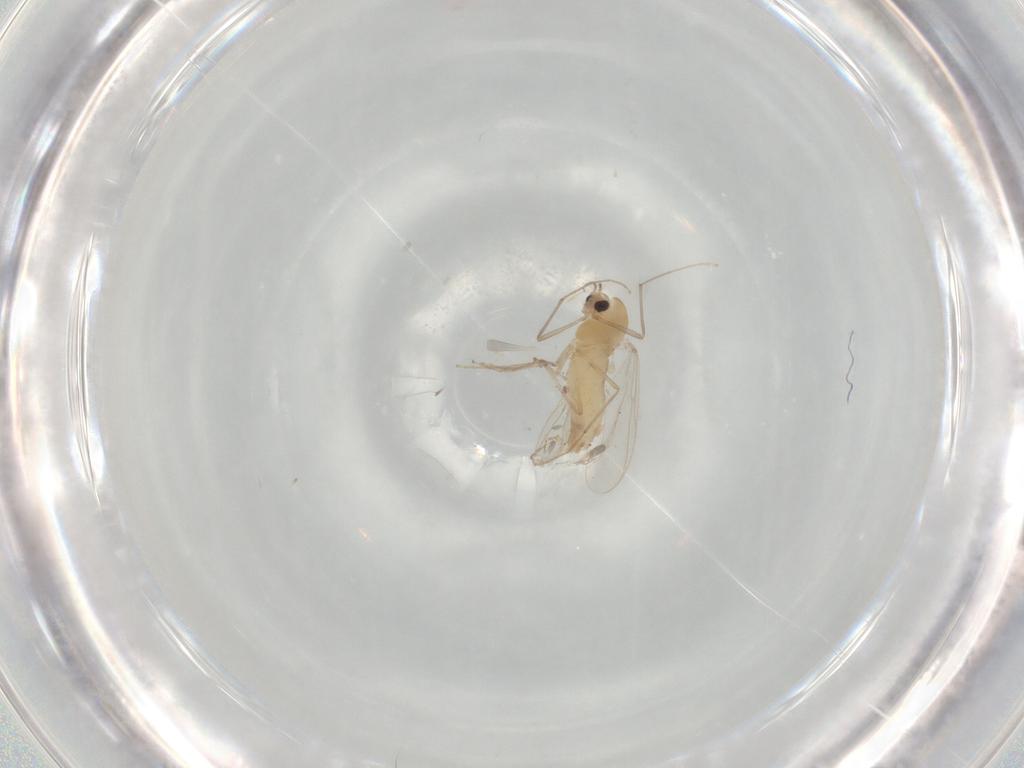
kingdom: Animalia
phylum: Arthropoda
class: Insecta
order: Diptera
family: Chironomidae
